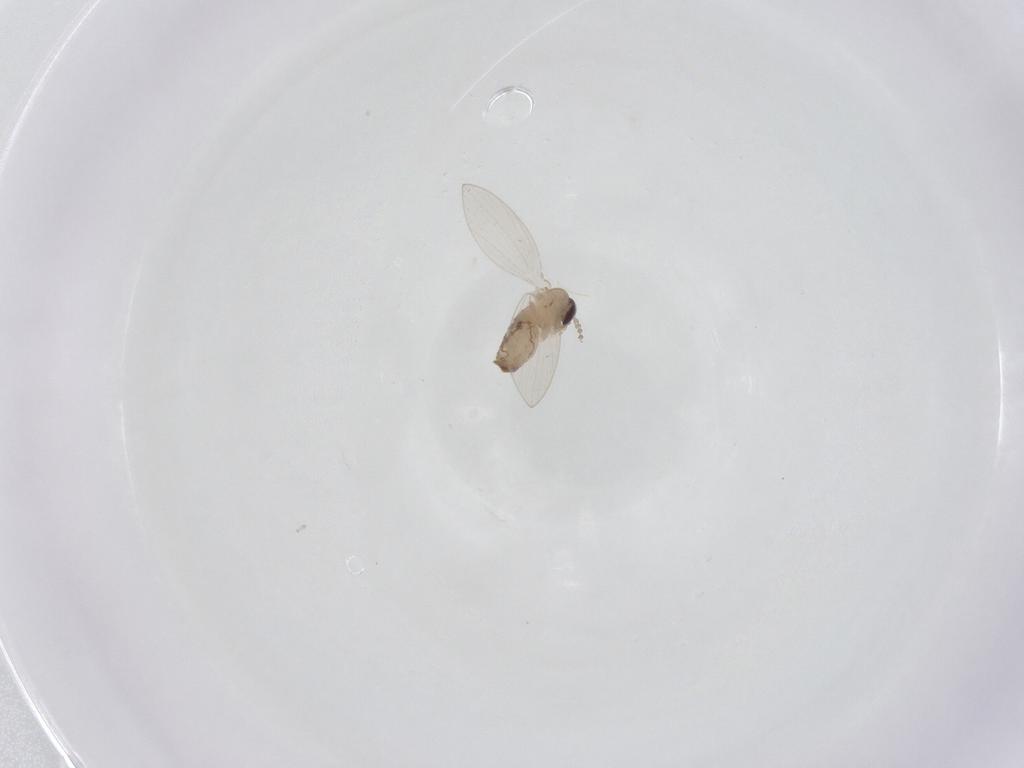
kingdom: Animalia
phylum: Arthropoda
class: Insecta
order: Diptera
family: Psychodidae
